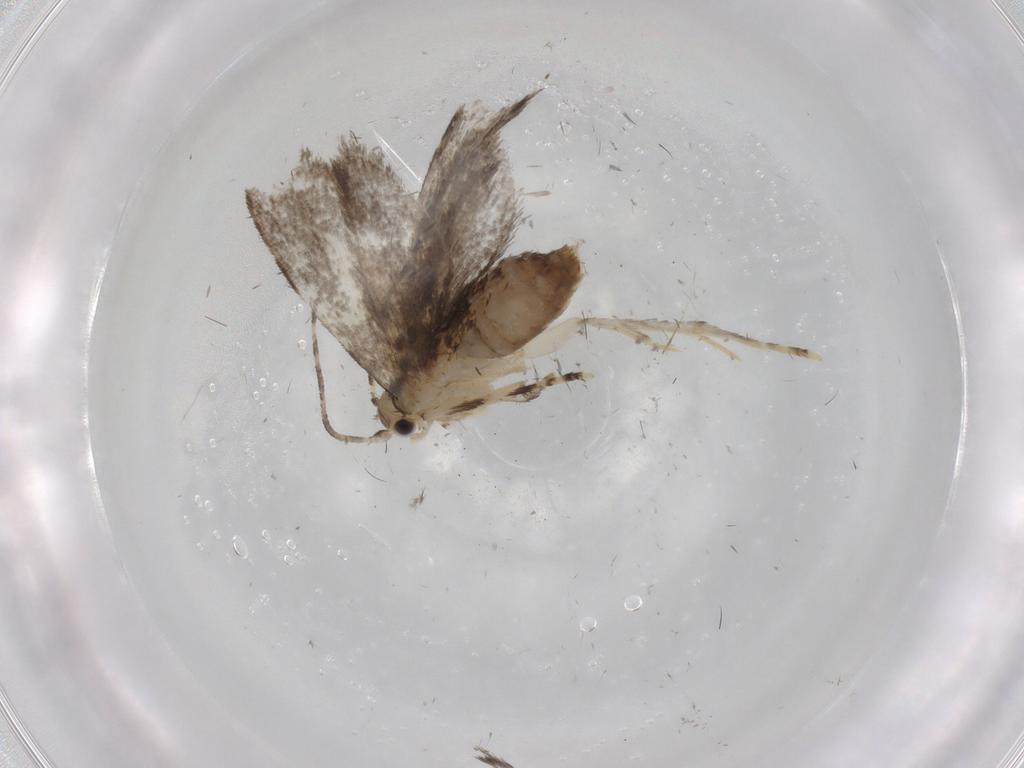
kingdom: Animalia
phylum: Arthropoda
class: Insecta
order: Lepidoptera
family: Tineidae
